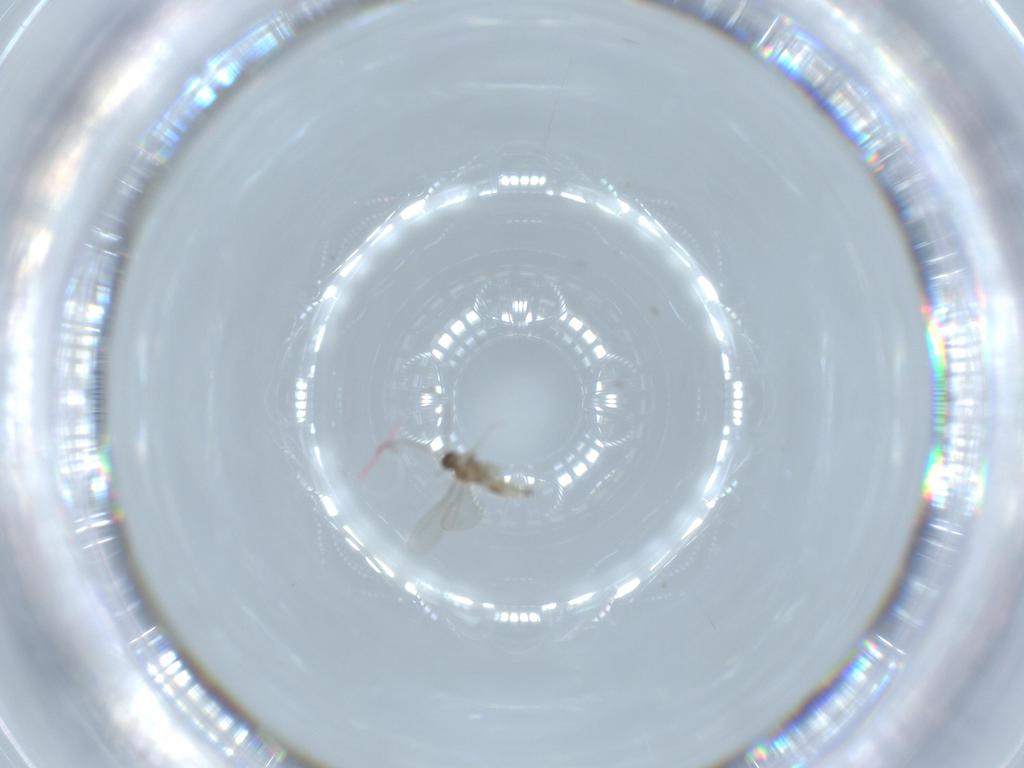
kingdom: Animalia
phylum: Arthropoda
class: Insecta
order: Diptera
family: Cecidomyiidae
